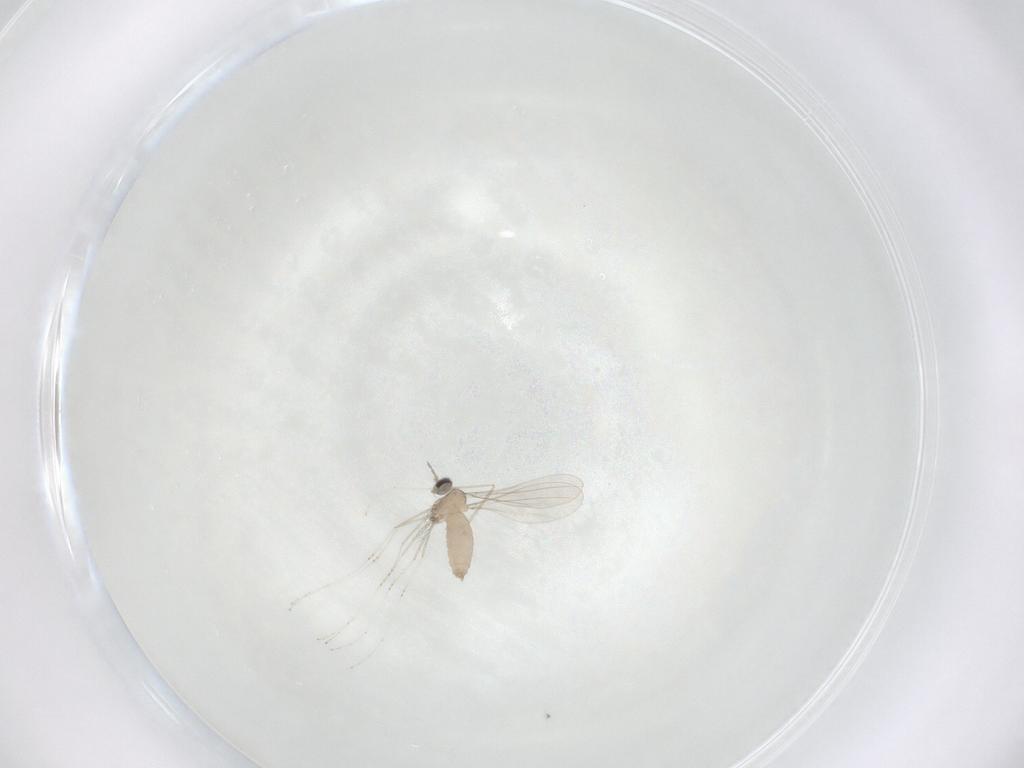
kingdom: Animalia
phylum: Arthropoda
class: Insecta
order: Diptera
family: Cecidomyiidae
